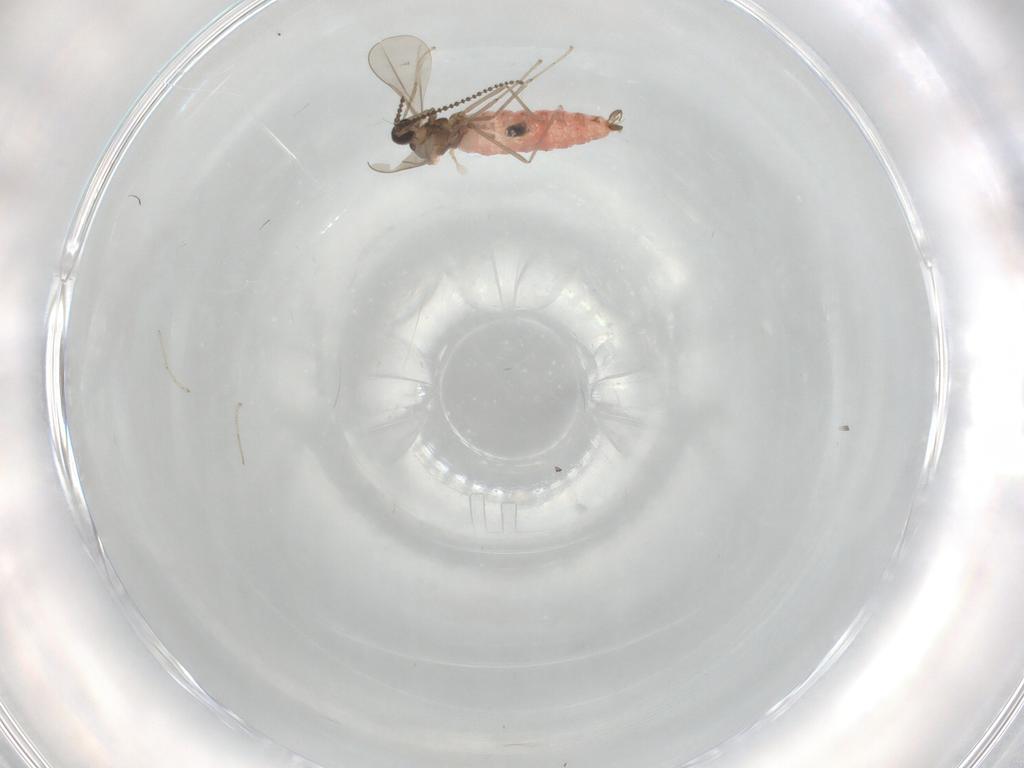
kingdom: Animalia
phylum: Arthropoda
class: Insecta
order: Diptera
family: Cecidomyiidae
